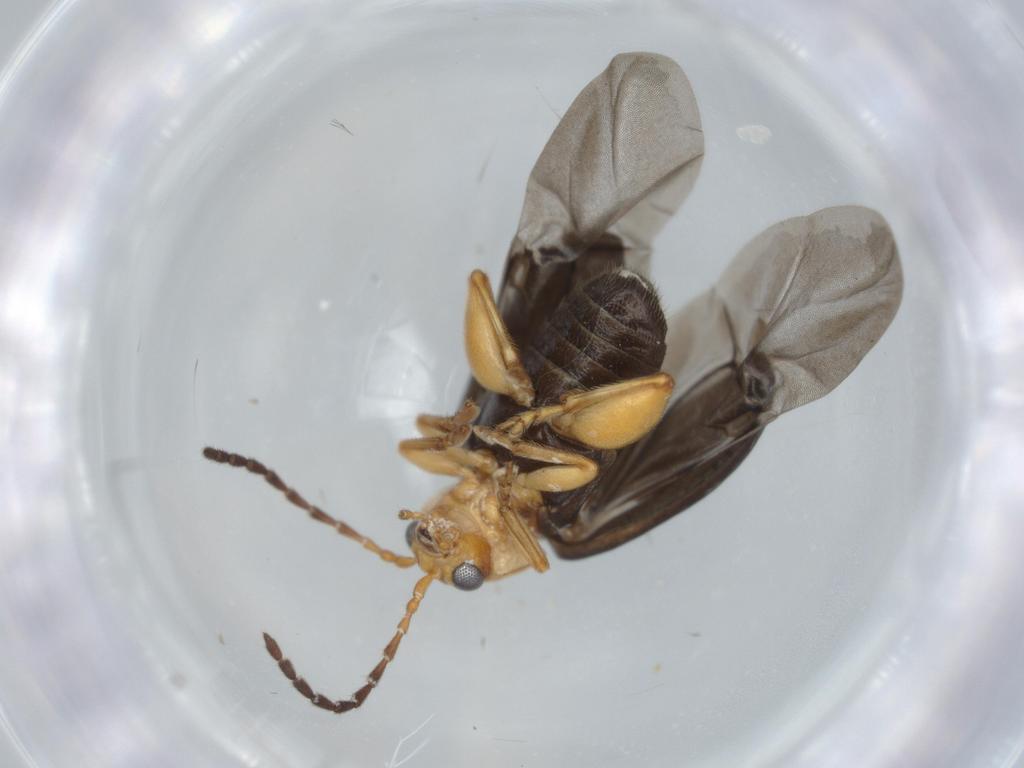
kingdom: Animalia
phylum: Arthropoda
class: Insecta
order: Coleoptera
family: Chrysomelidae
